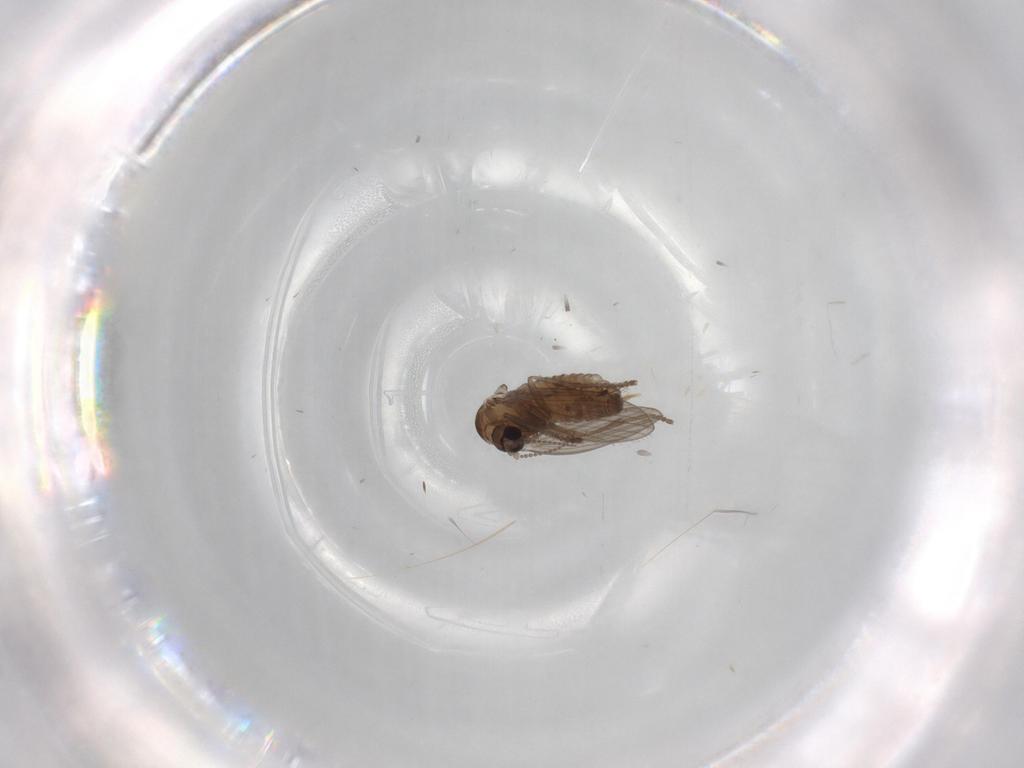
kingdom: Animalia
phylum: Arthropoda
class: Insecta
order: Diptera
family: Psychodidae
